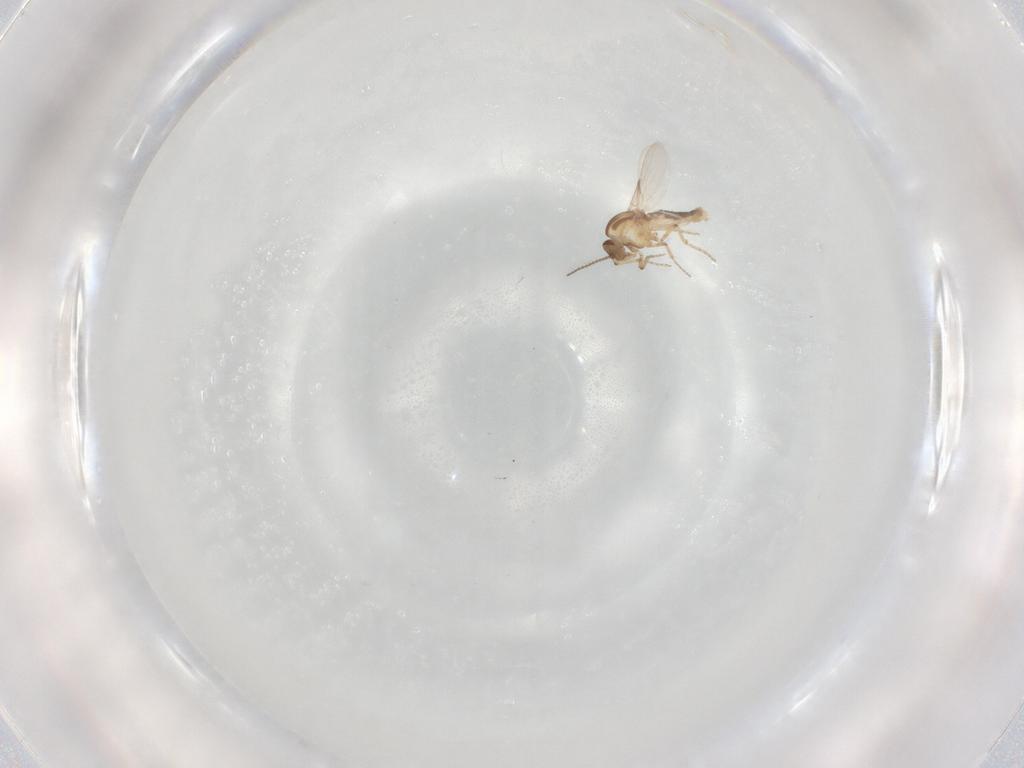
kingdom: Animalia
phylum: Arthropoda
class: Insecta
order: Diptera
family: Ceratopogonidae
